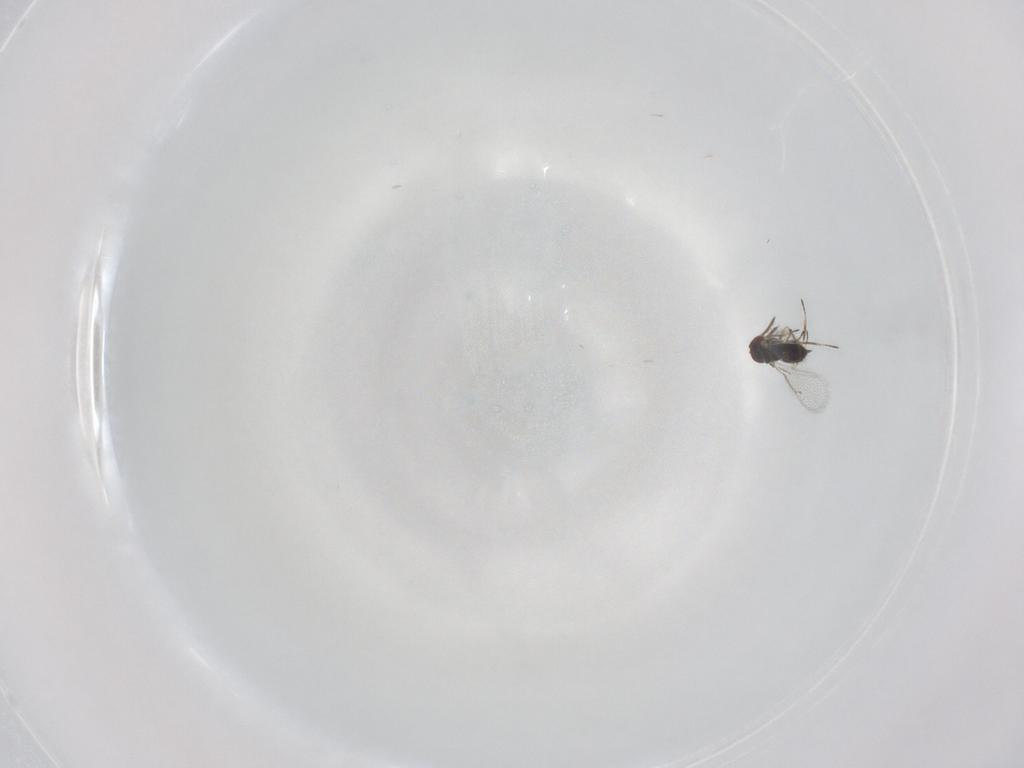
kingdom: Animalia
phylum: Arthropoda
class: Insecta
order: Hymenoptera
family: Eulophidae
